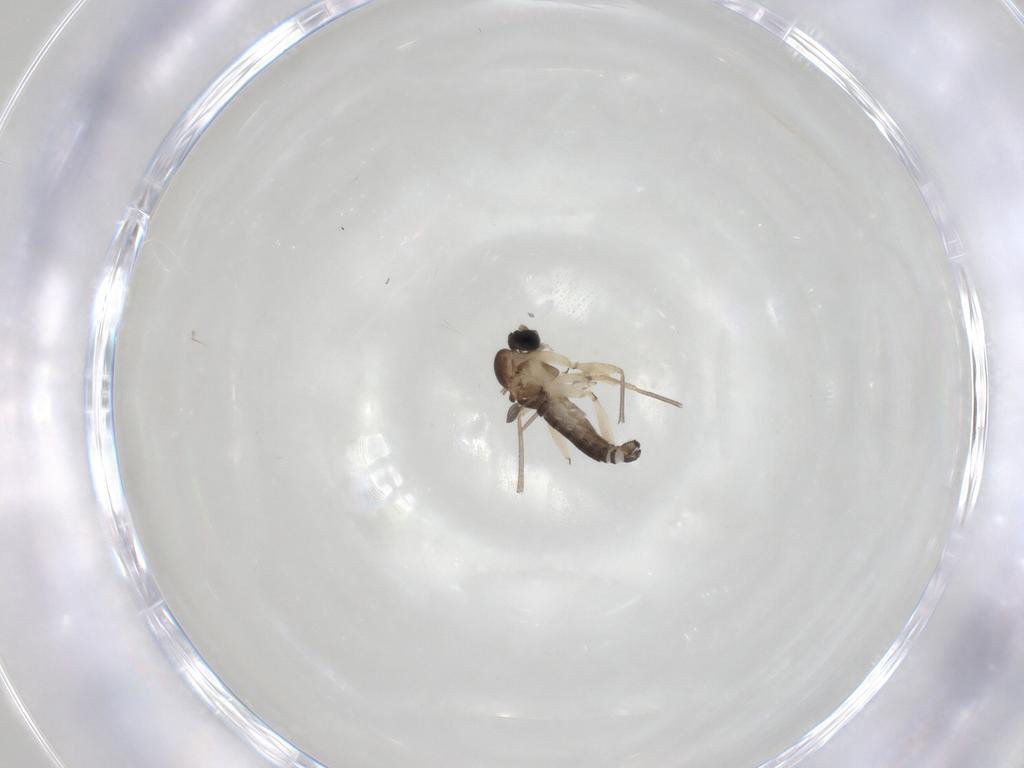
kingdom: Animalia
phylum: Arthropoda
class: Insecta
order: Diptera
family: Sciaridae
